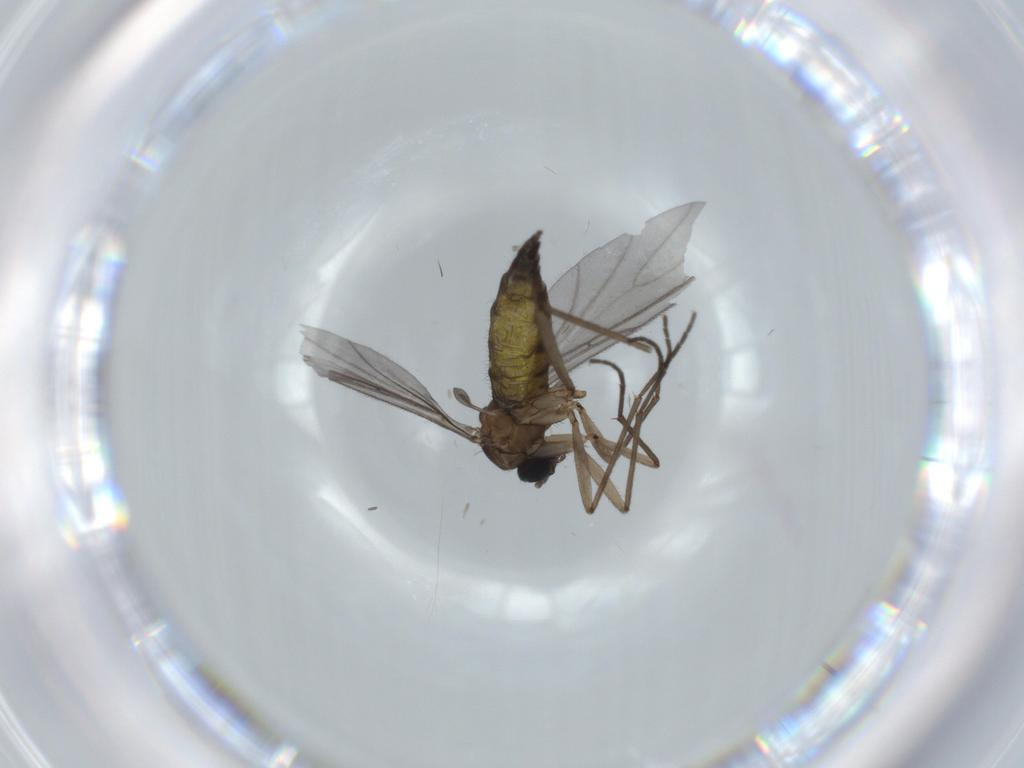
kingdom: Animalia
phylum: Arthropoda
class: Insecta
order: Diptera
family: Sciaridae
